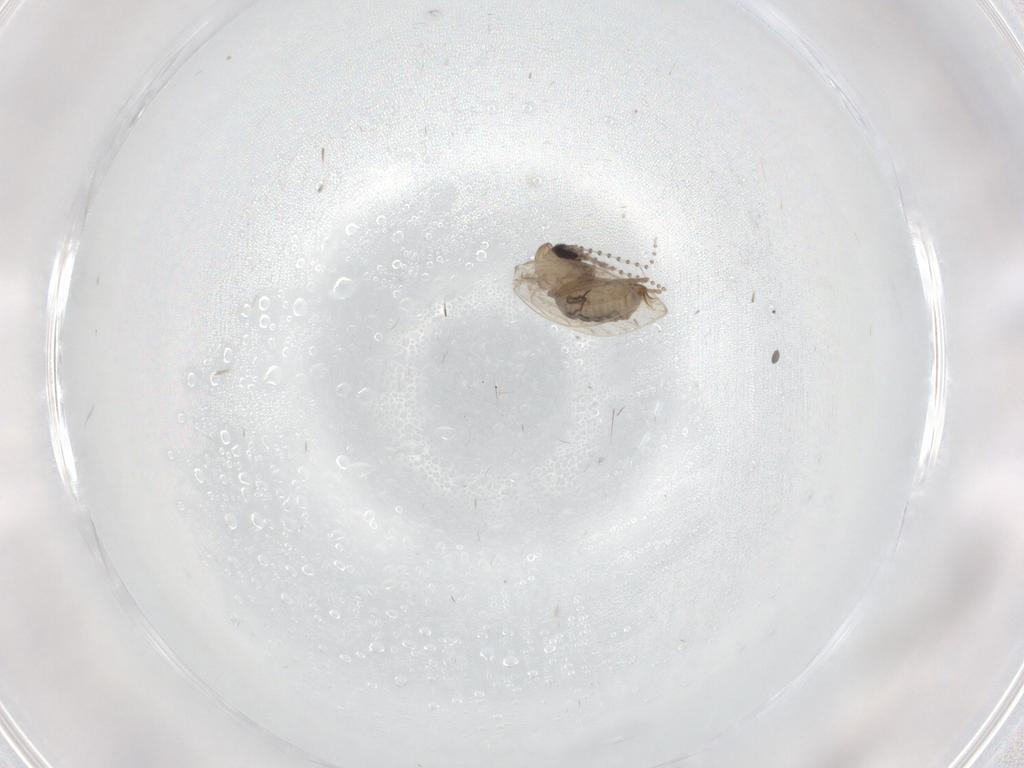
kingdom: Animalia
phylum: Arthropoda
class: Insecta
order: Diptera
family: Psychodidae
